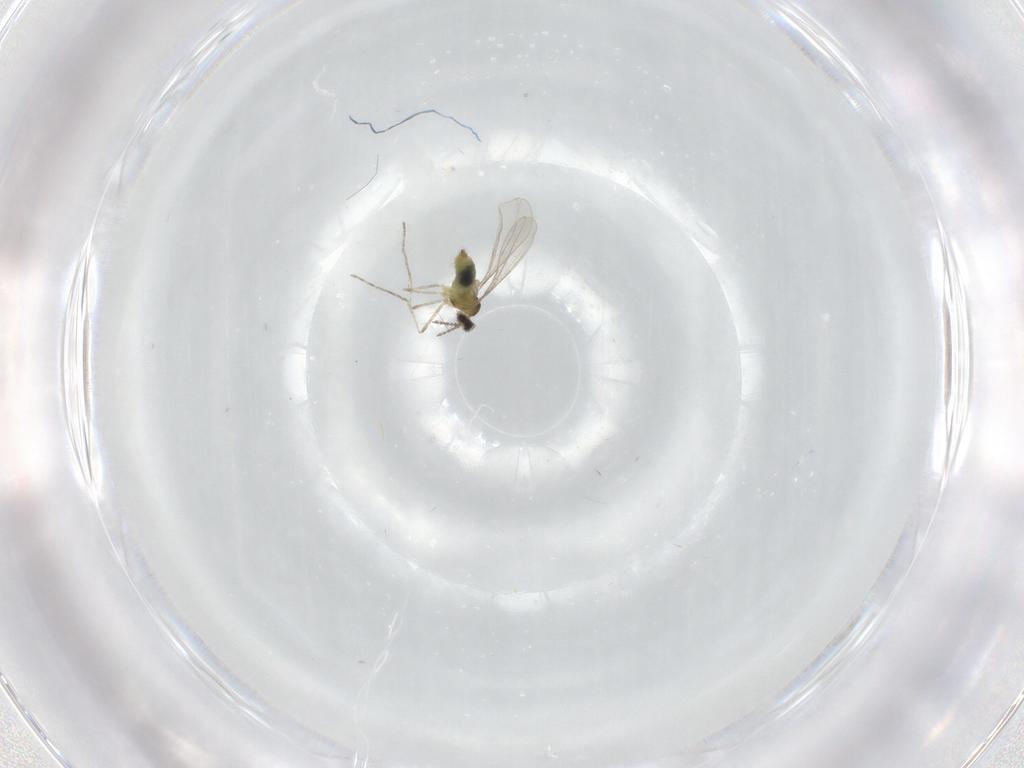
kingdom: Animalia
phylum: Arthropoda
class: Insecta
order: Diptera
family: Cecidomyiidae
